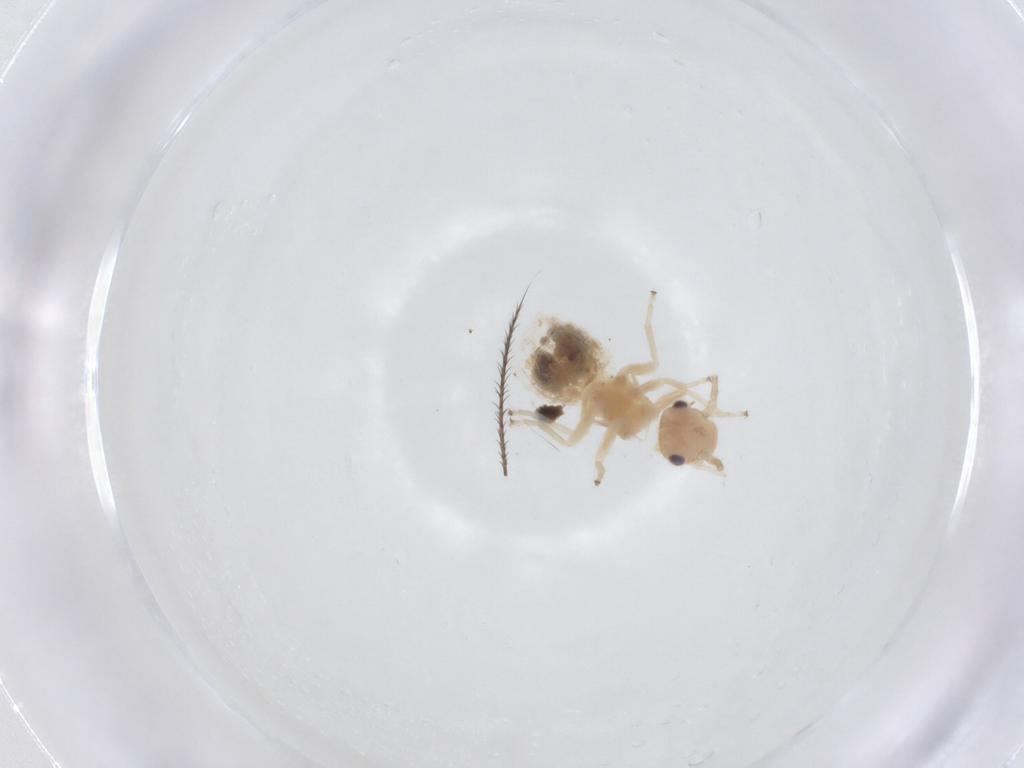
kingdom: Animalia
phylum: Arthropoda
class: Insecta
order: Psocodea
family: Amphipsocidae
